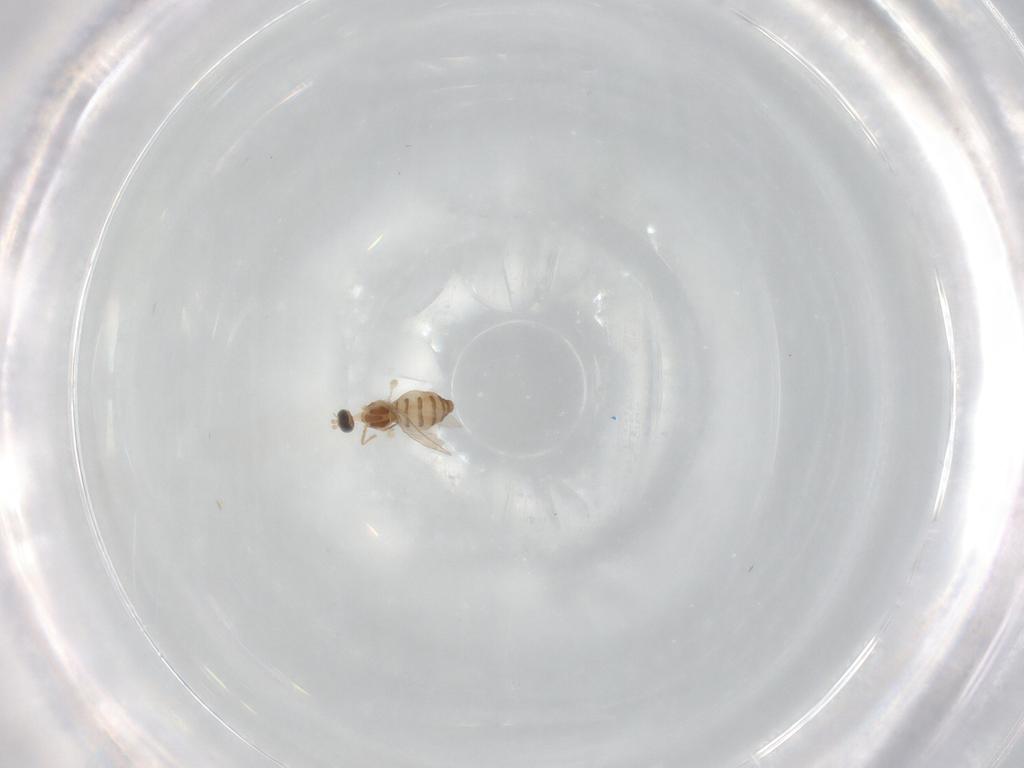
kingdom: Animalia
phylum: Arthropoda
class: Insecta
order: Diptera
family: Cecidomyiidae
